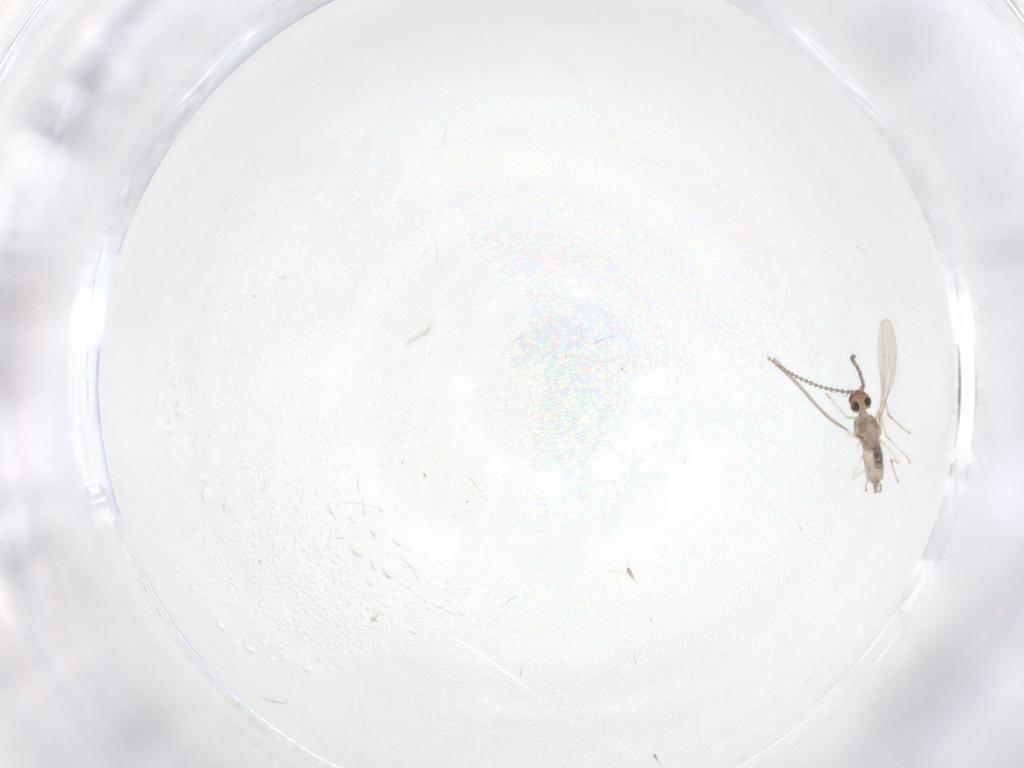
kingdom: Animalia
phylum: Arthropoda
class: Insecta
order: Diptera
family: Cecidomyiidae
